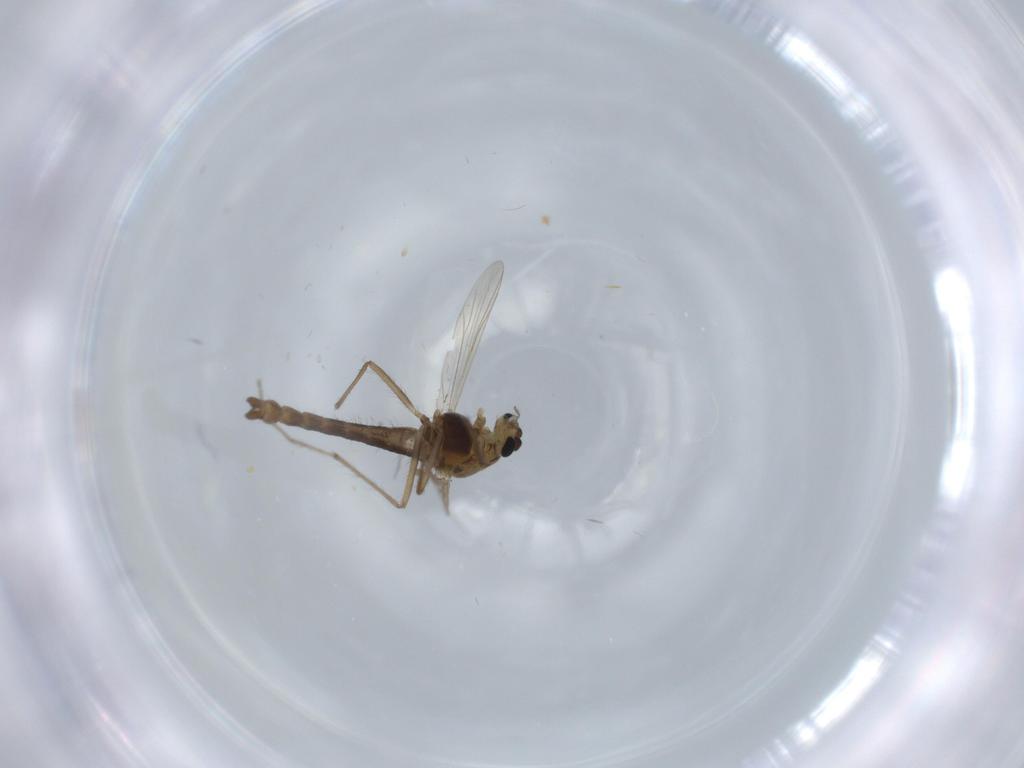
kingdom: Animalia
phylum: Arthropoda
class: Insecta
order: Diptera
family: Chironomidae
